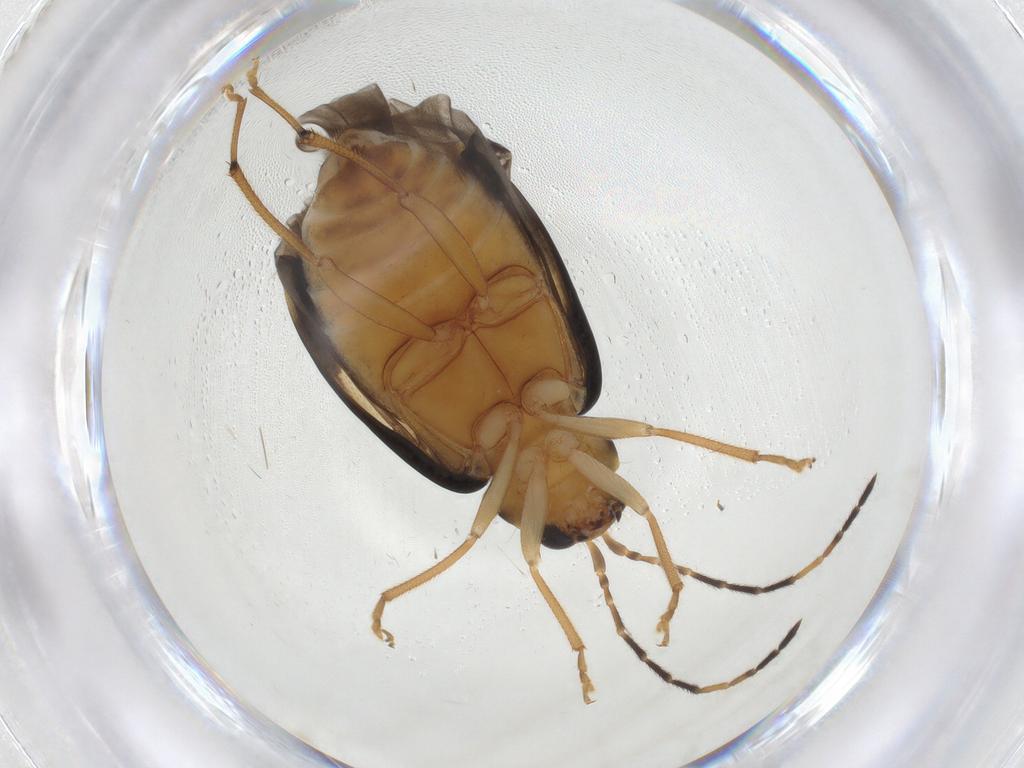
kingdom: Animalia
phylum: Arthropoda
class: Insecta
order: Coleoptera
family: Chrysomelidae
